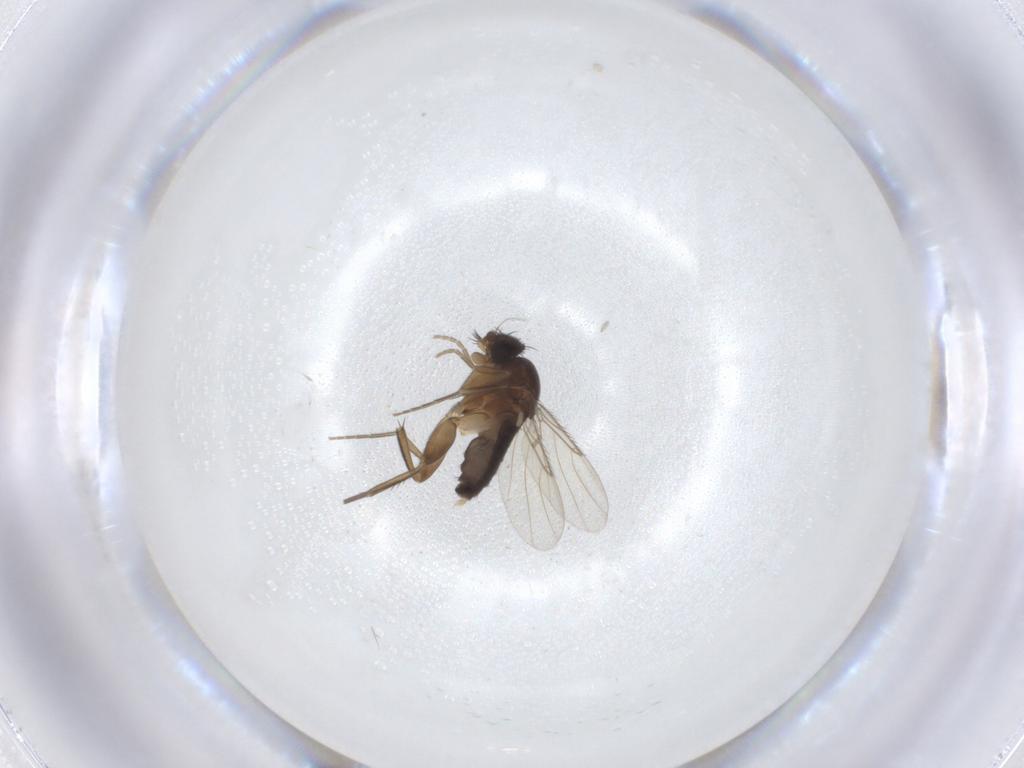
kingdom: Animalia
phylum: Arthropoda
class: Insecta
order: Diptera
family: Phoridae
